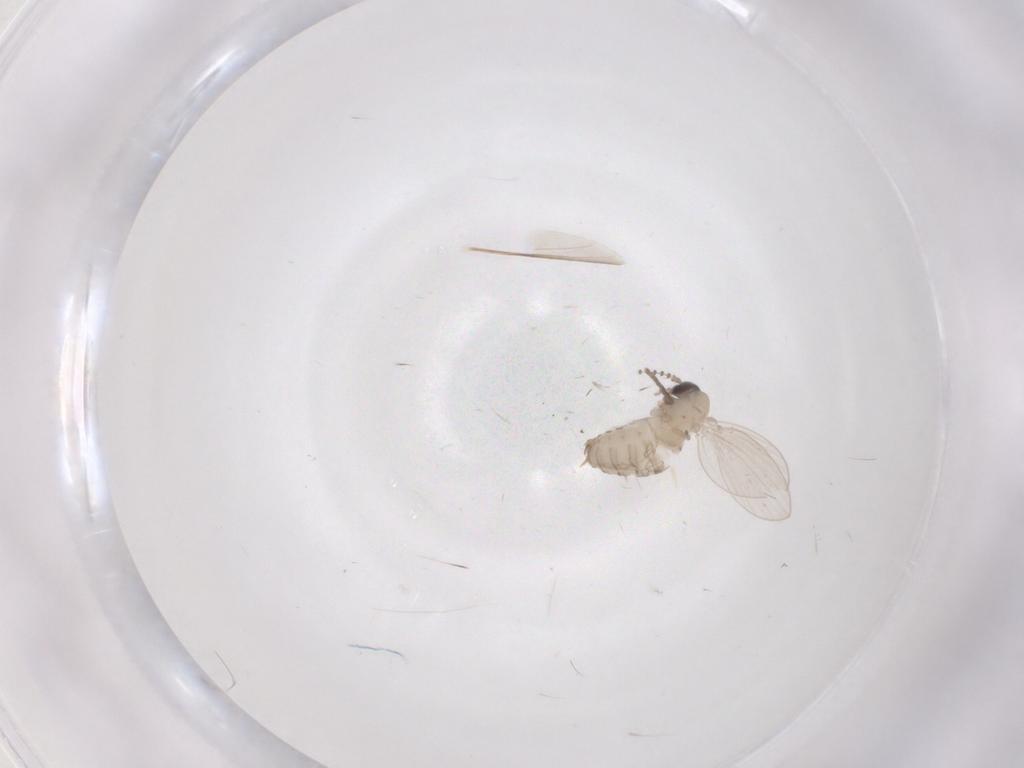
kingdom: Animalia
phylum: Arthropoda
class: Insecta
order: Diptera
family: Psychodidae
